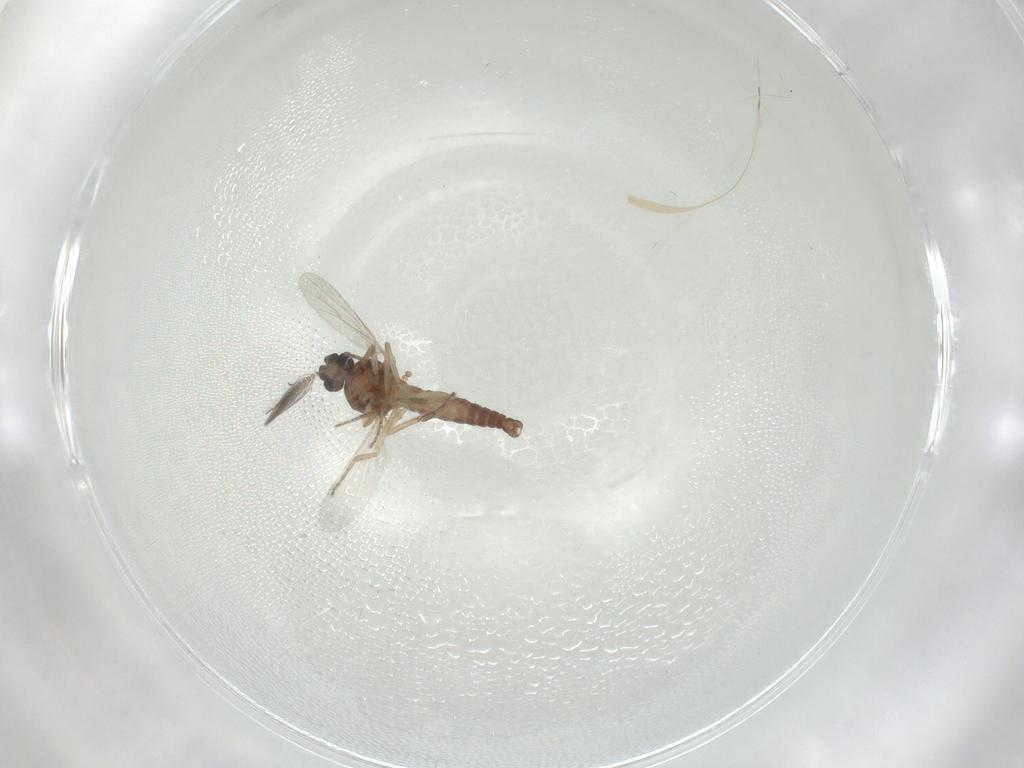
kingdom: Animalia
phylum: Arthropoda
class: Insecta
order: Diptera
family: Ceratopogonidae
